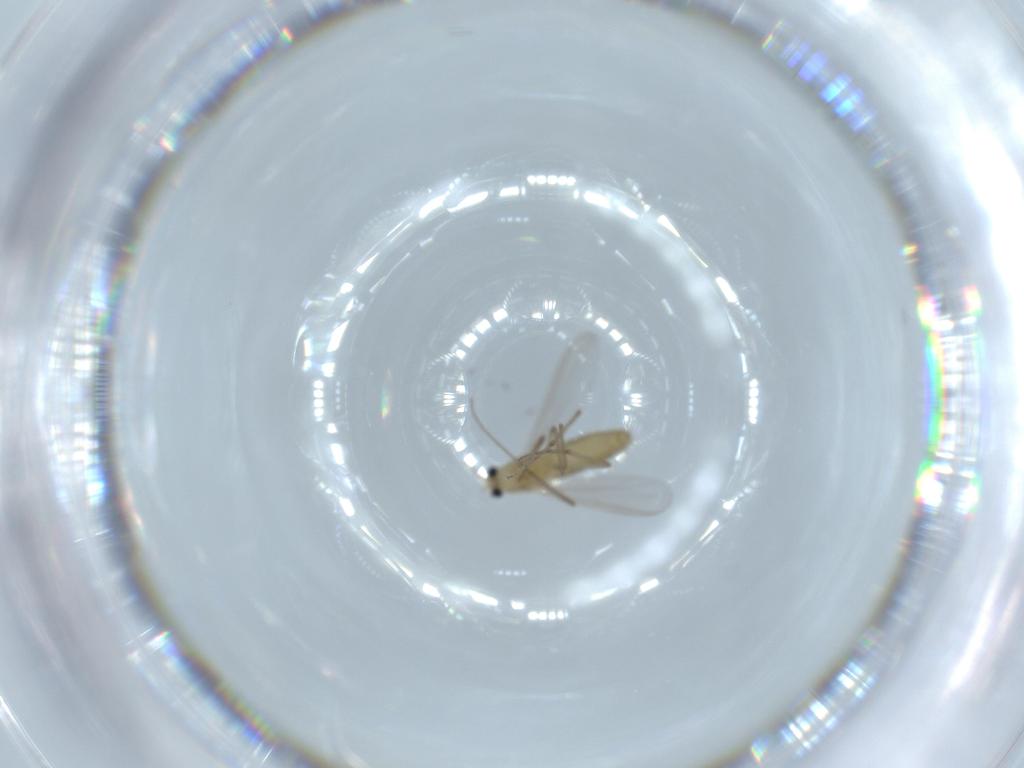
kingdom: Animalia
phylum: Arthropoda
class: Insecta
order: Diptera
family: Chironomidae
